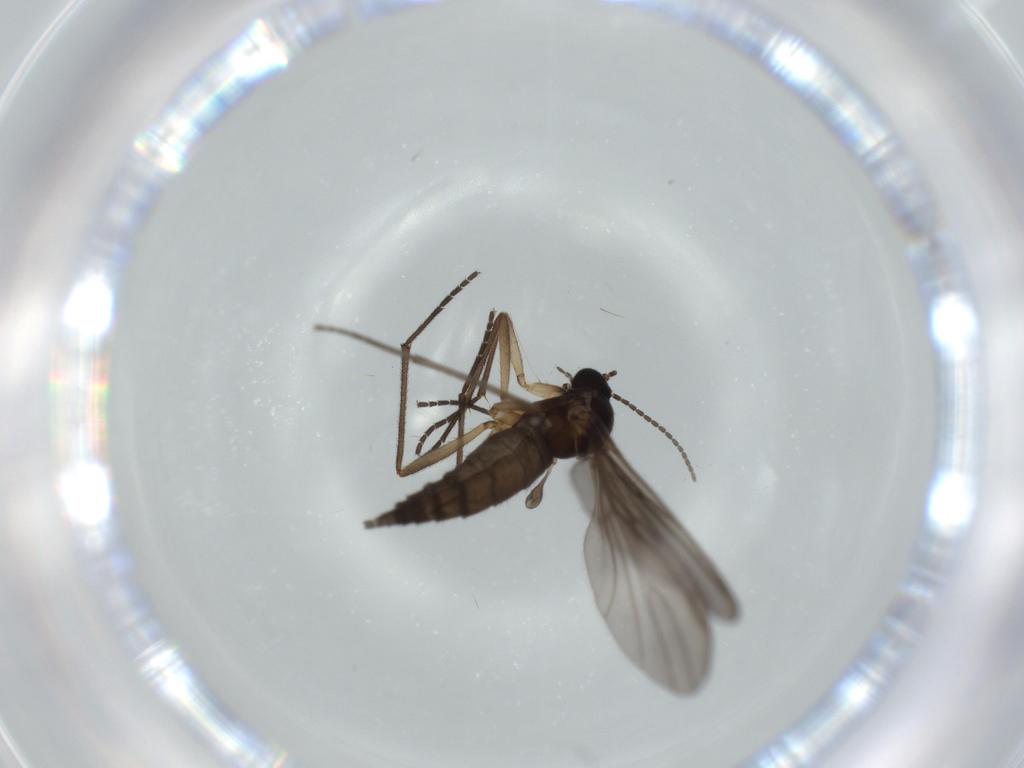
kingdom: Animalia
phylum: Arthropoda
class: Insecta
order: Diptera
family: Sciaridae
